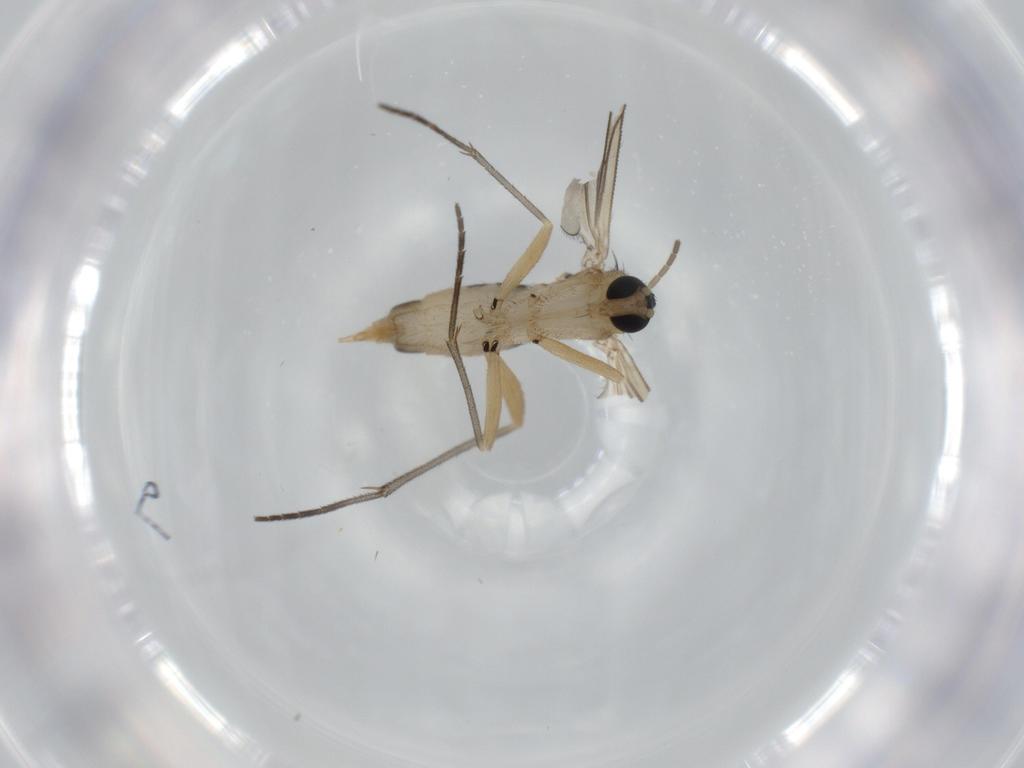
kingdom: Animalia
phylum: Arthropoda
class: Insecta
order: Diptera
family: Sciaridae
